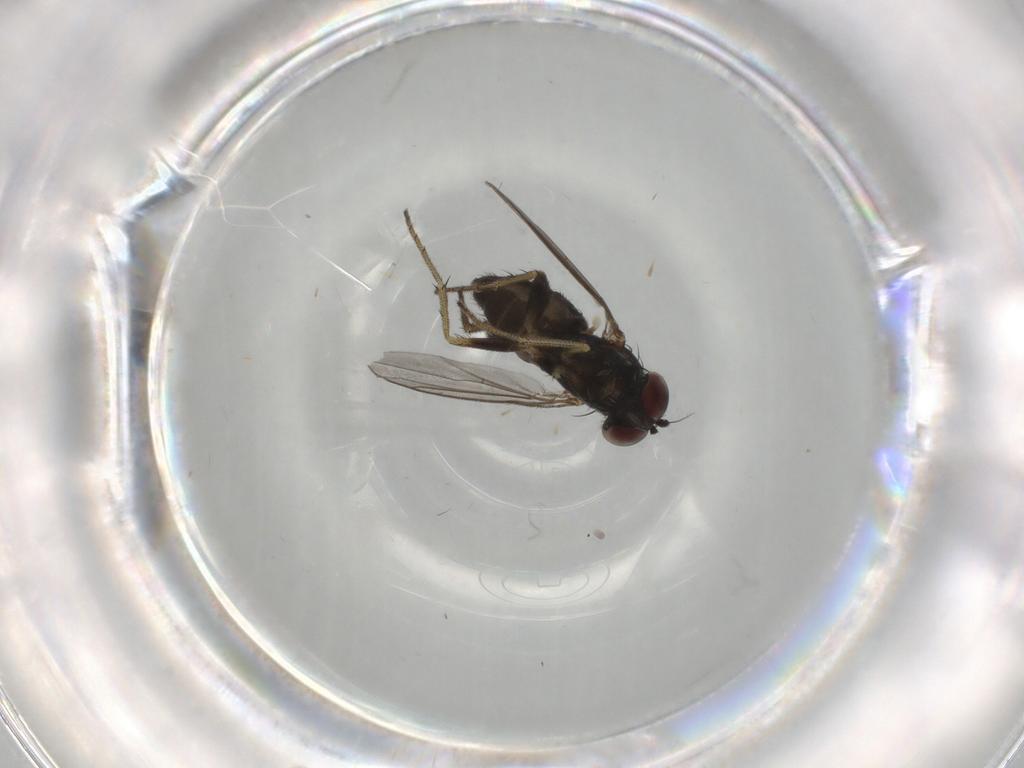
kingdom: Animalia
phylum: Arthropoda
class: Insecta
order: Diptera
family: Dolichopodidae
